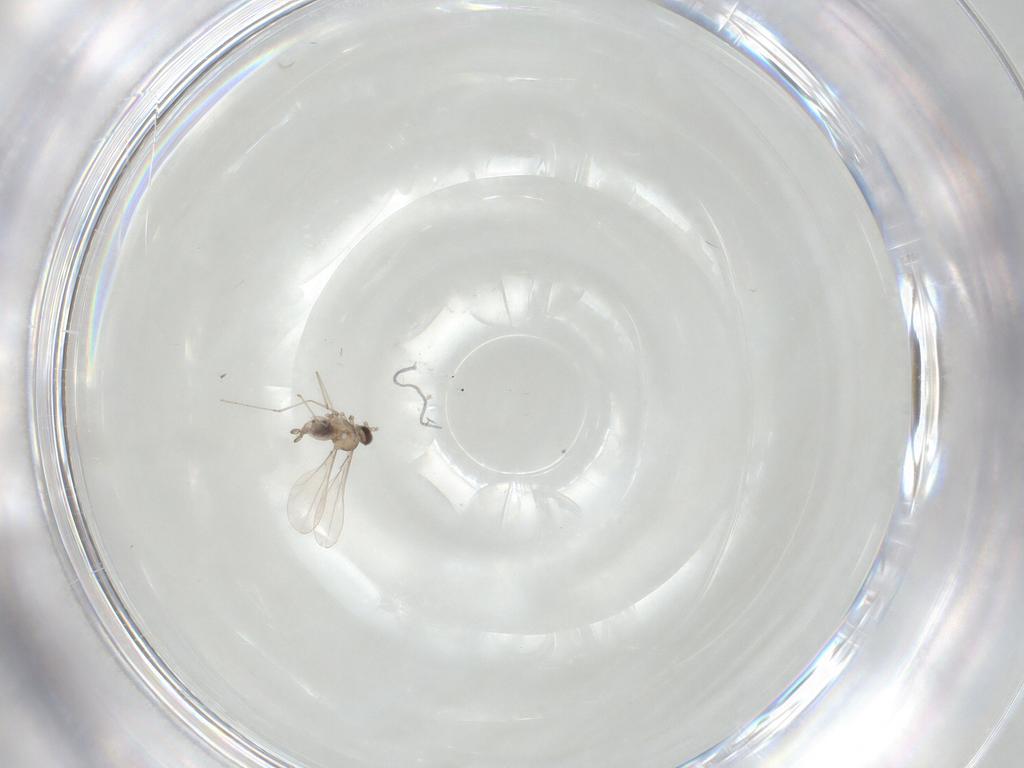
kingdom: Animalia
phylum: Arthropoda
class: Insecta
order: Diptera
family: Cecidomyiidae
